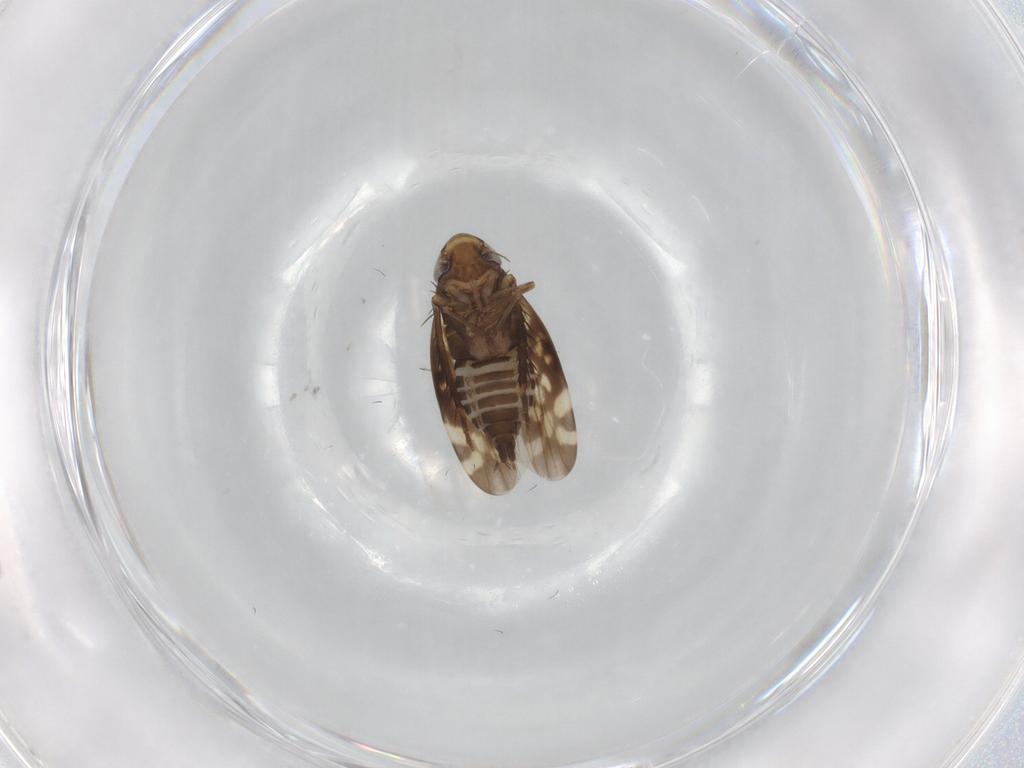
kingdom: Animalia
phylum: Arthropoda
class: Insecta
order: Hemiptera
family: Cicadellidae
